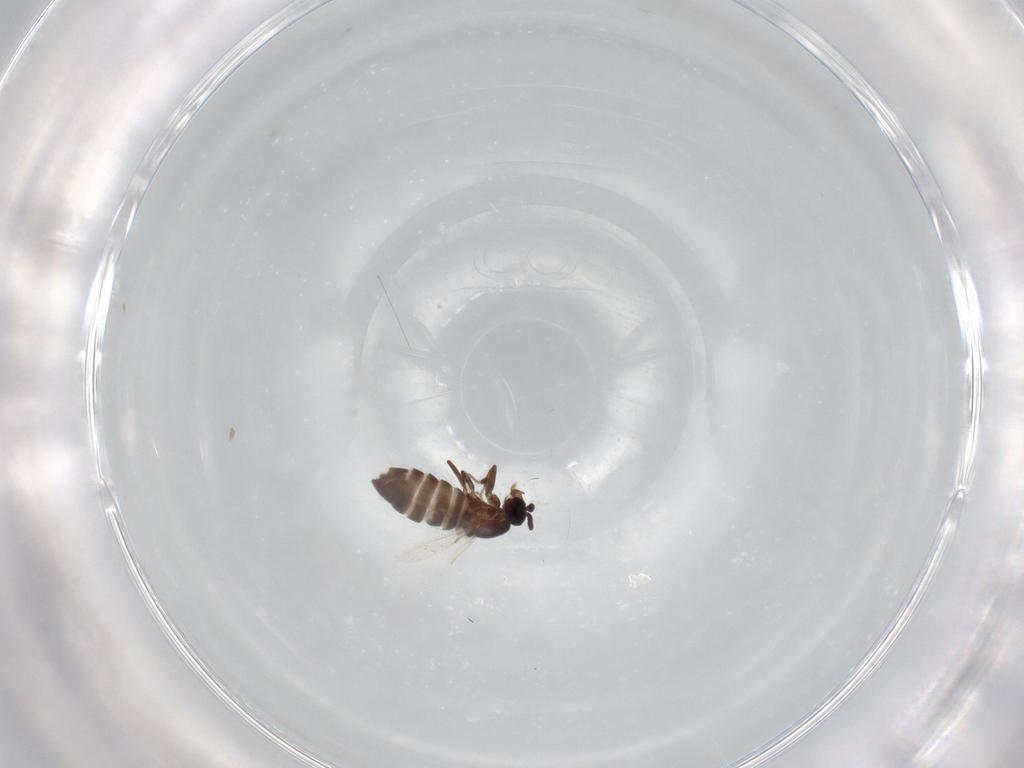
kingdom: Animalia
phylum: Arthropoda
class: Insecta
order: Diptera
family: Scatopsidae
